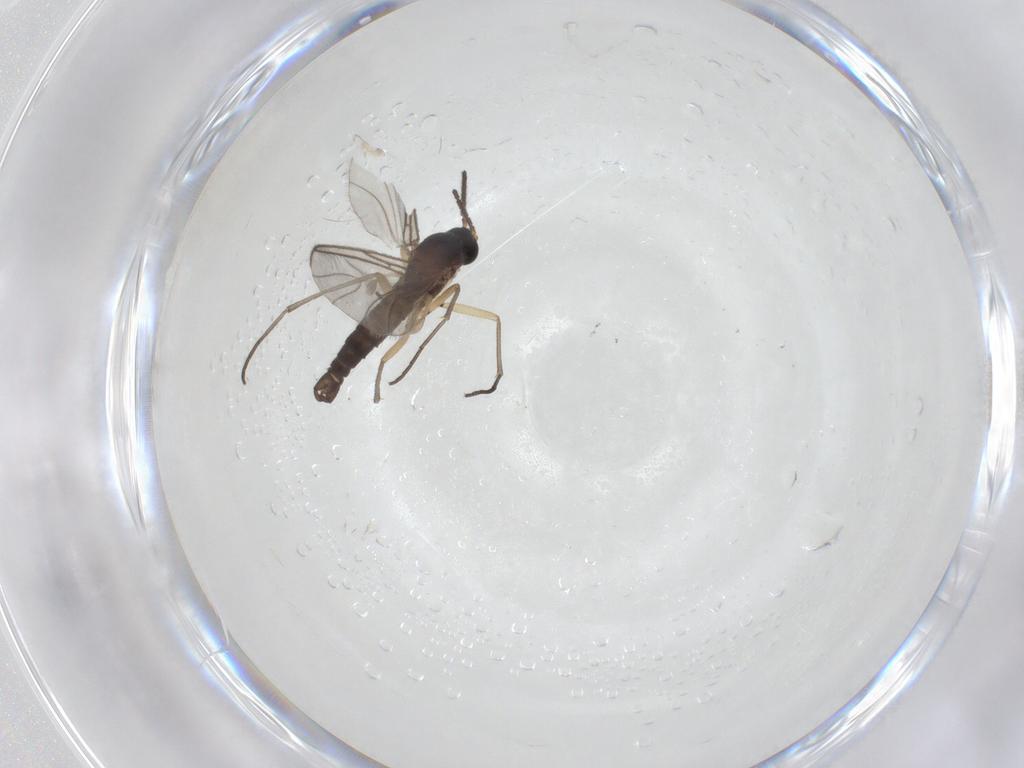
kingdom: Animalia
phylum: Arthropoda
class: Insecta
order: Diptera
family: Sciaridae
